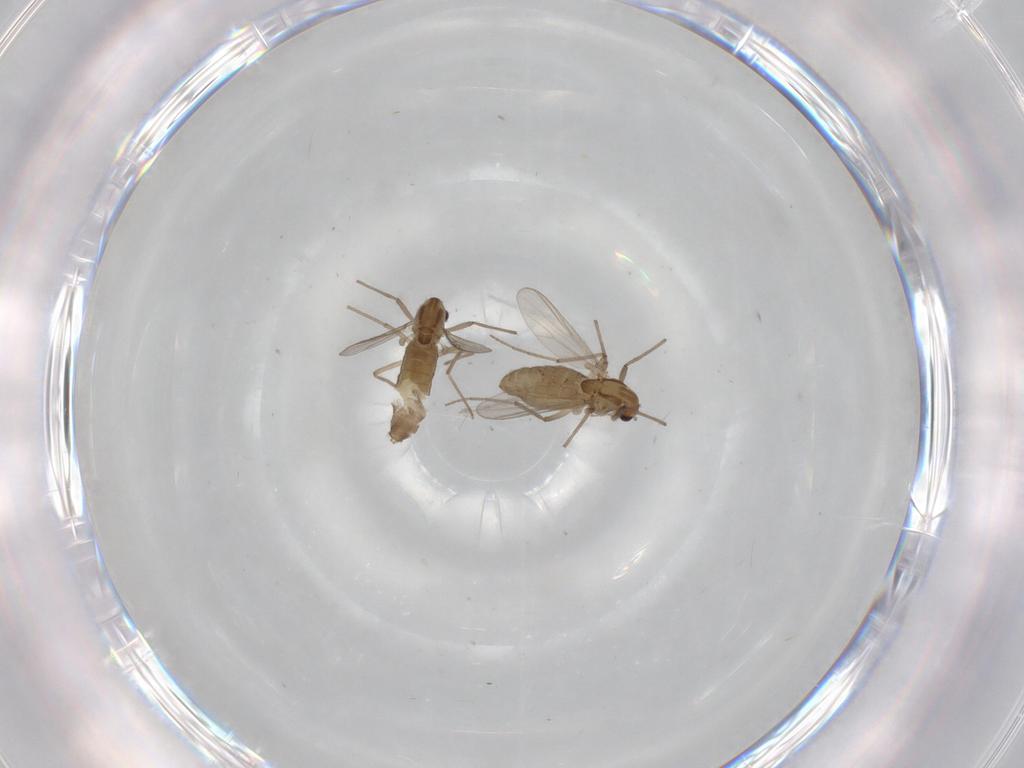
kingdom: Animalia
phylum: Arthropoda
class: Insecta
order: Diptera
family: Chironomidae
